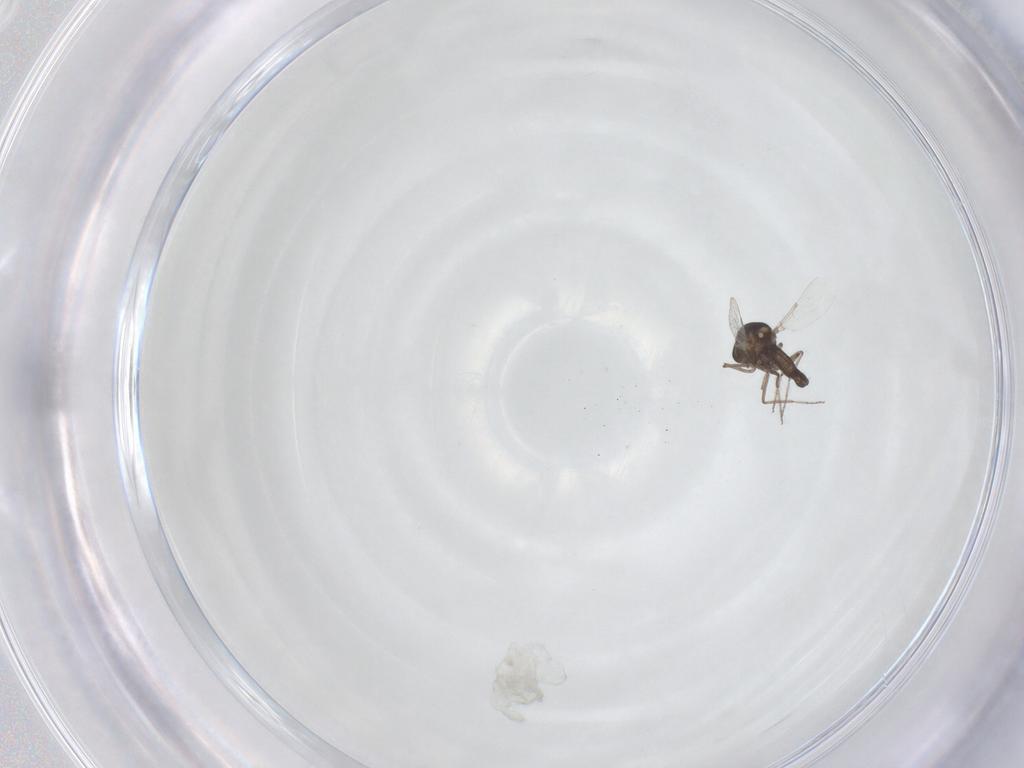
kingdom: Animalia
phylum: Arthropoda
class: Insecta
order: Diptera
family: Ceratopogonidae
